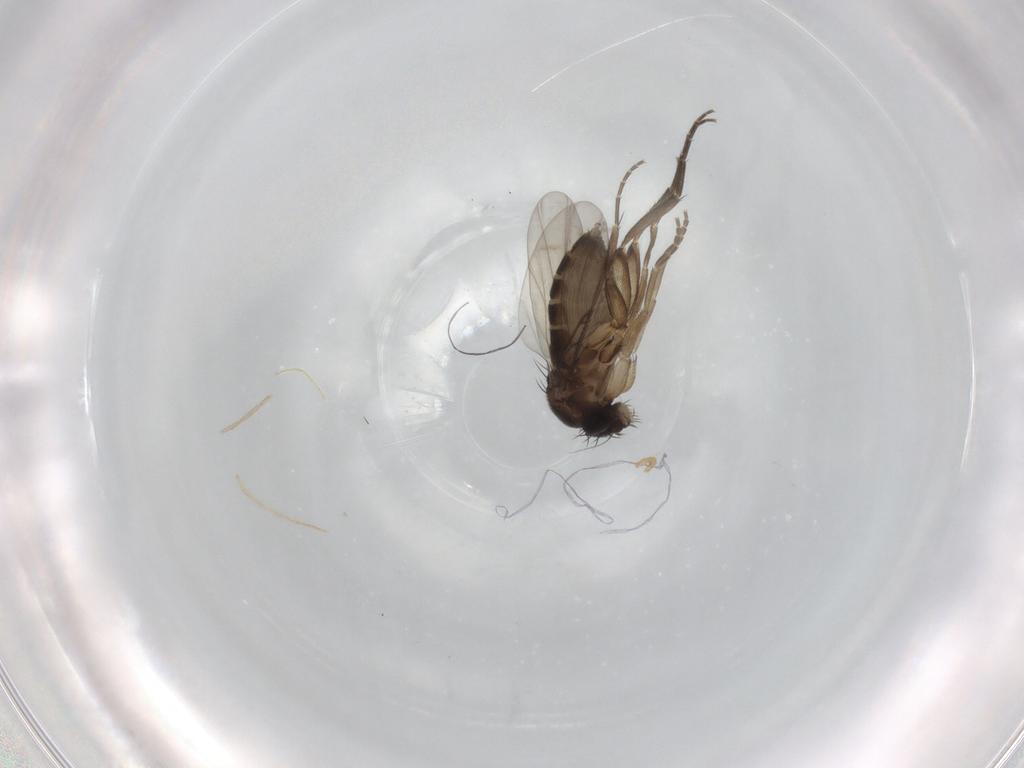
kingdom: Animalia
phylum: Arthropoda
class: Insecta
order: Diptera
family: Phoridae
